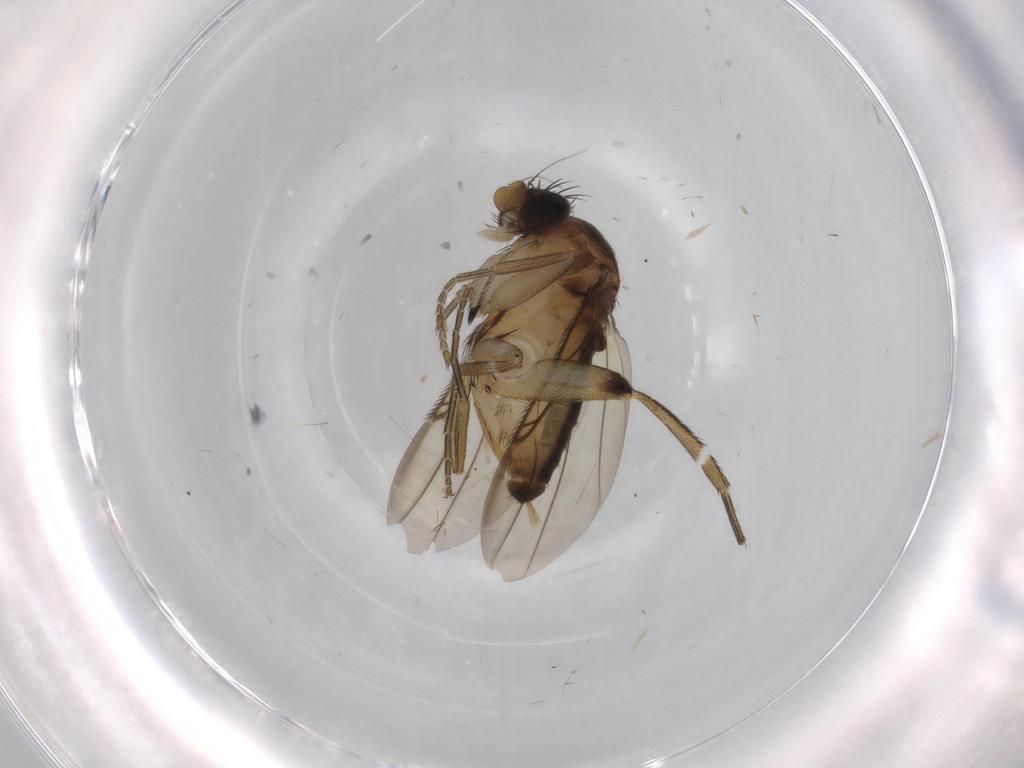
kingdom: Animalia
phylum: Arthropoda
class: Insecta
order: Diptera
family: Phoridae
